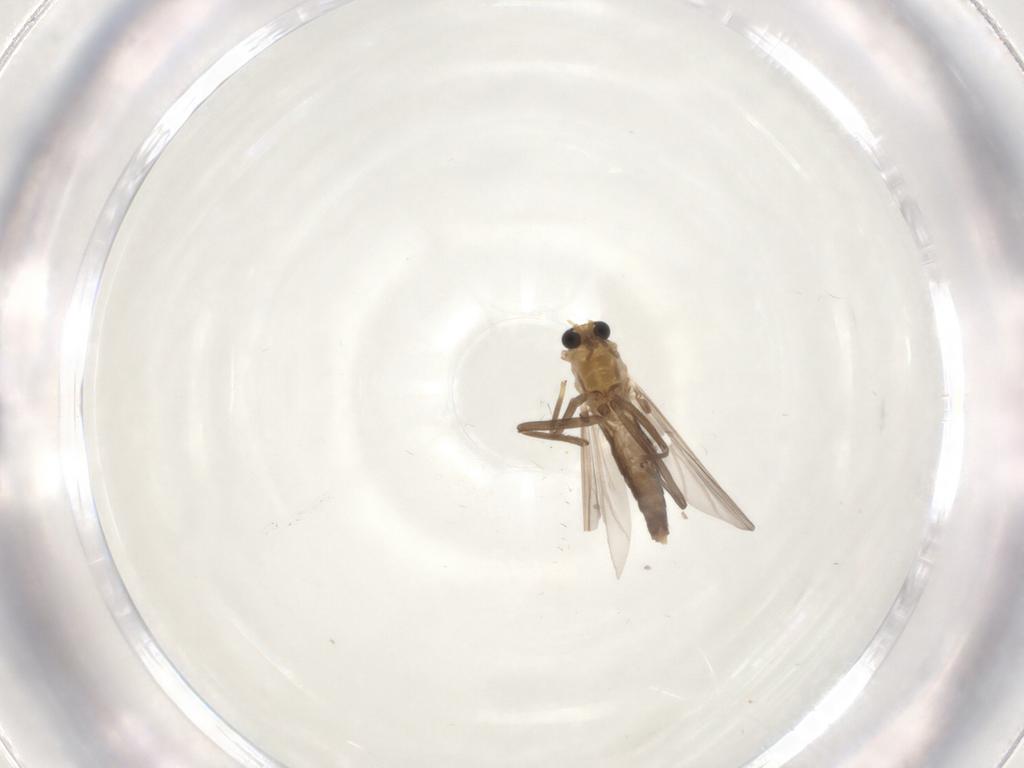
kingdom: Animalia
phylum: Arthropoda
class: Insecta
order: Diptera
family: Chironomidae
